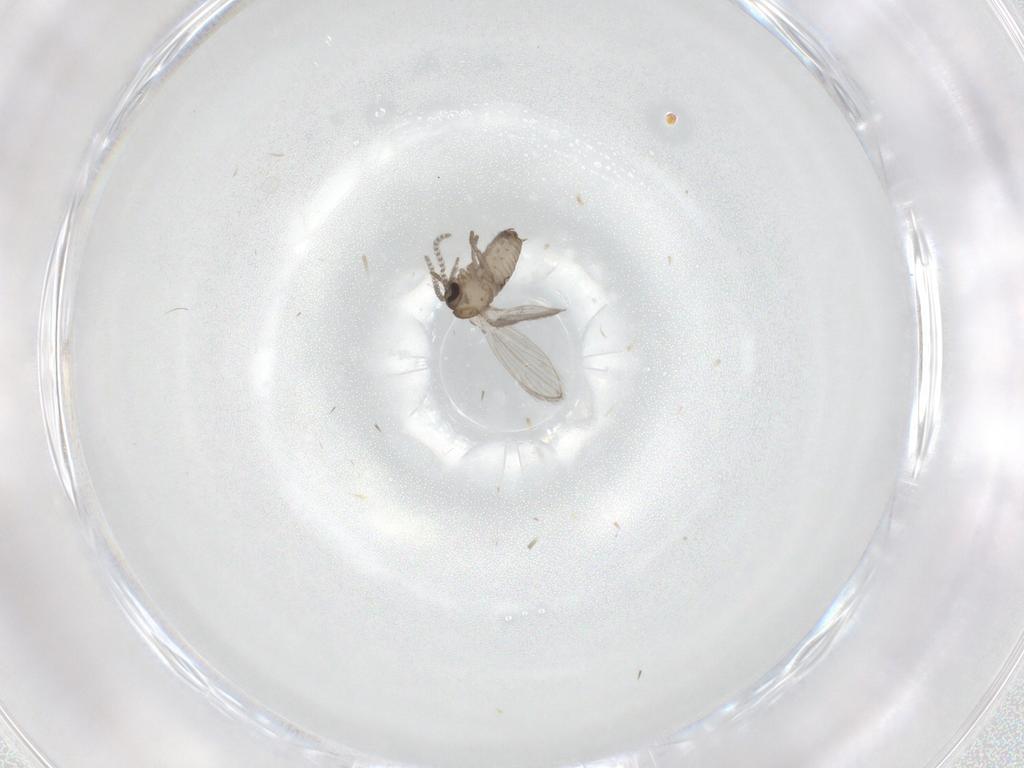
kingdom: Animalia
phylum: Arthropoda
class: Insecta
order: Diptera
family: Psychodidae
